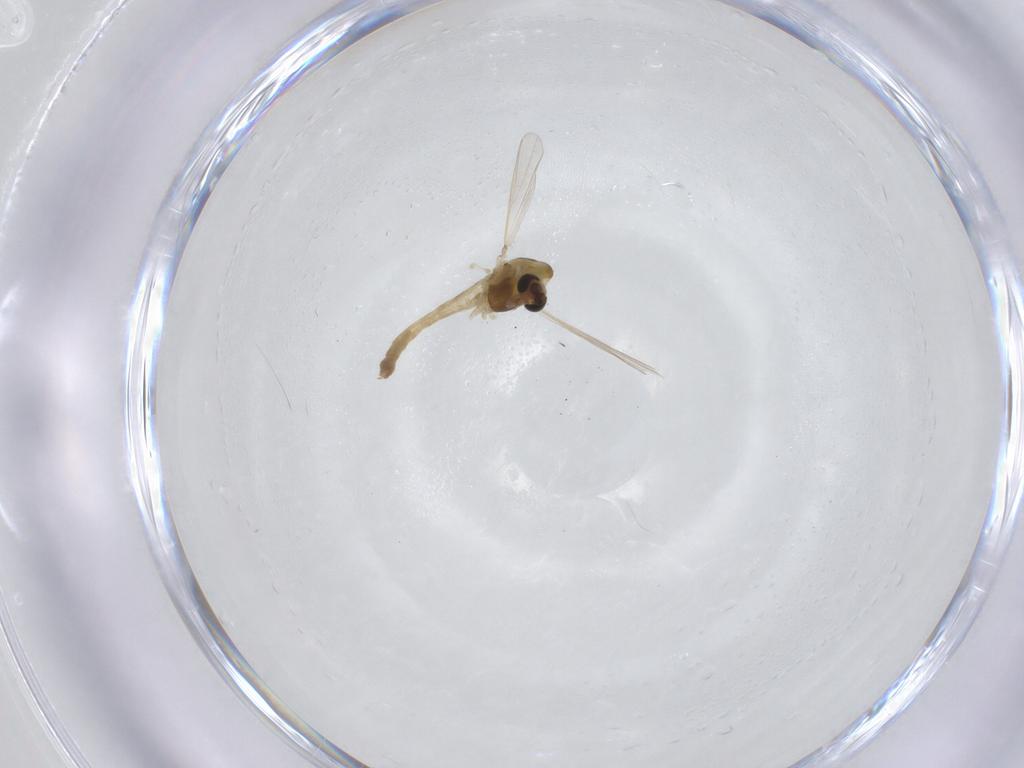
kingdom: Animalia
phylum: Arthropoda
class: Insecta
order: Diptera
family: Chironomidae
